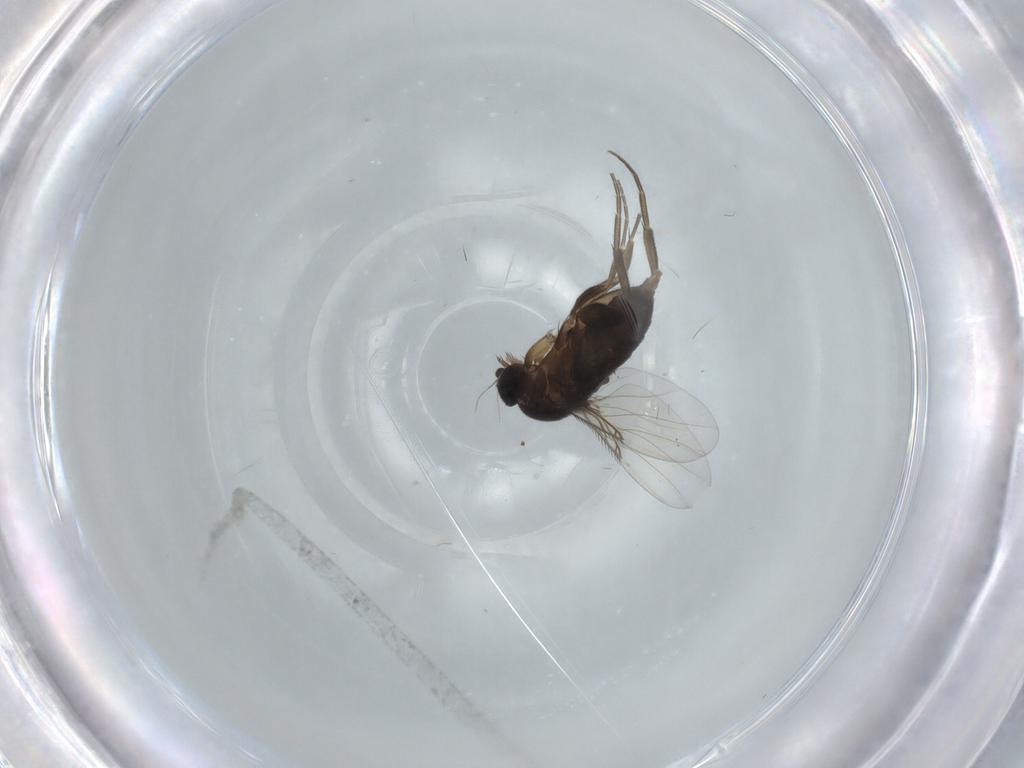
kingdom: Animalia
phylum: Arthropoda
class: Insecta
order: Diptera
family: Phoridae
